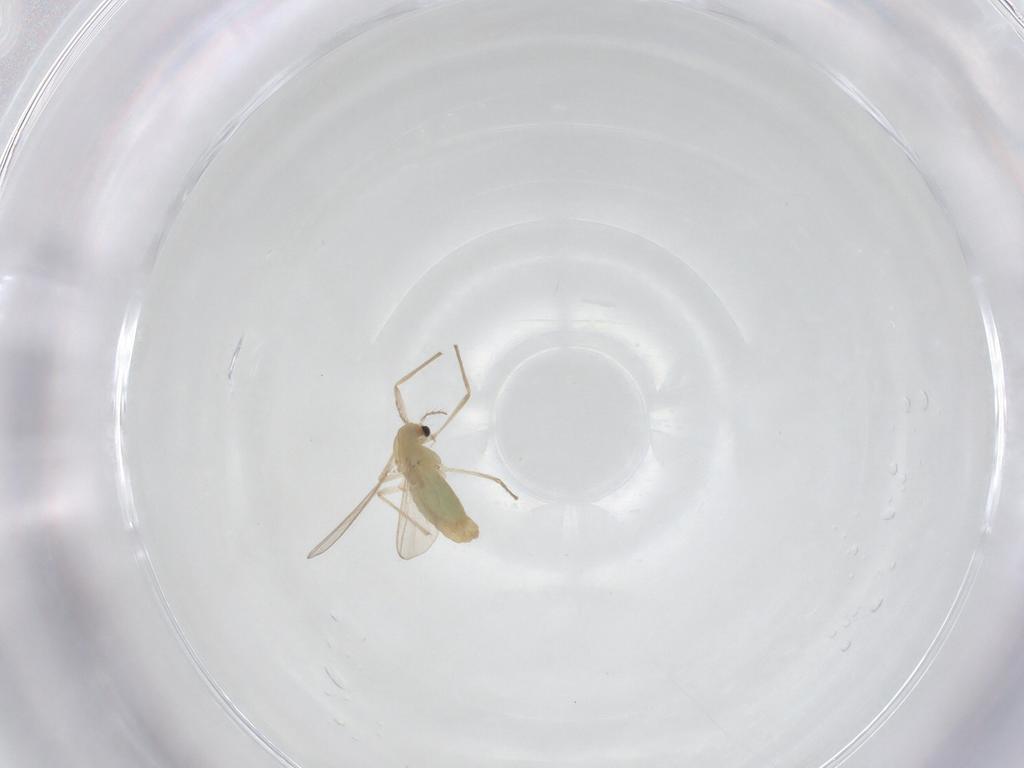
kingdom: Animalia
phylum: Arthropoda
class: Insecta
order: Diptera
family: Chironomidae
